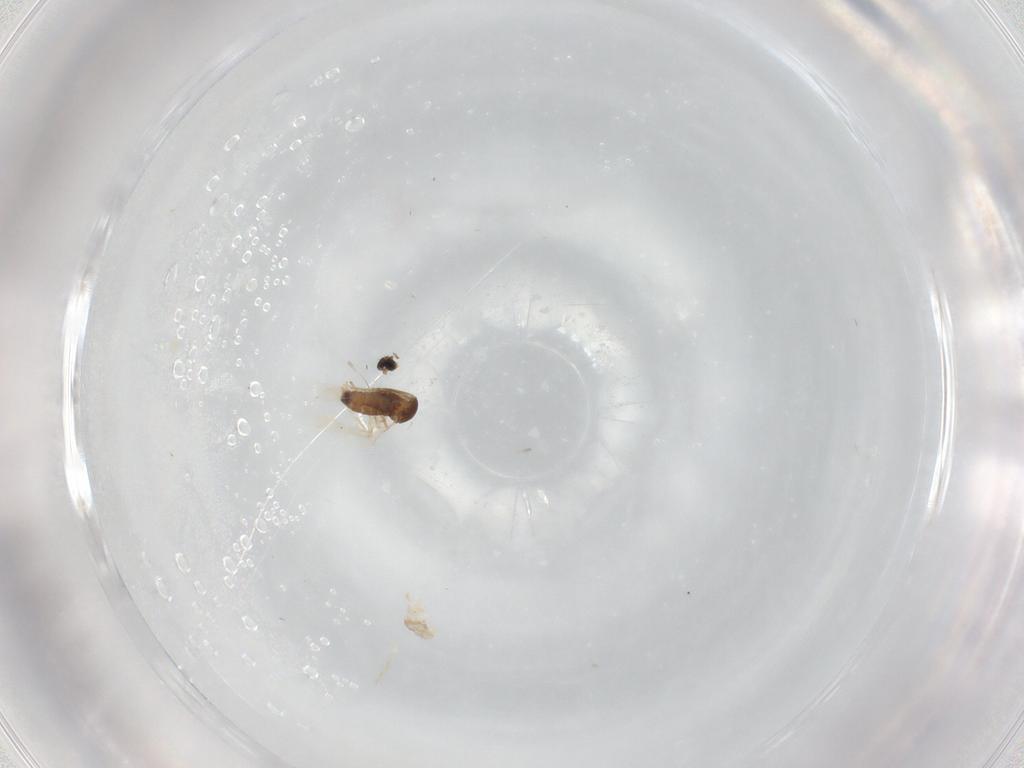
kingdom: Animalia
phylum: Arthropoda
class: Insecta
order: Diptera
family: Cecidomyiidae
